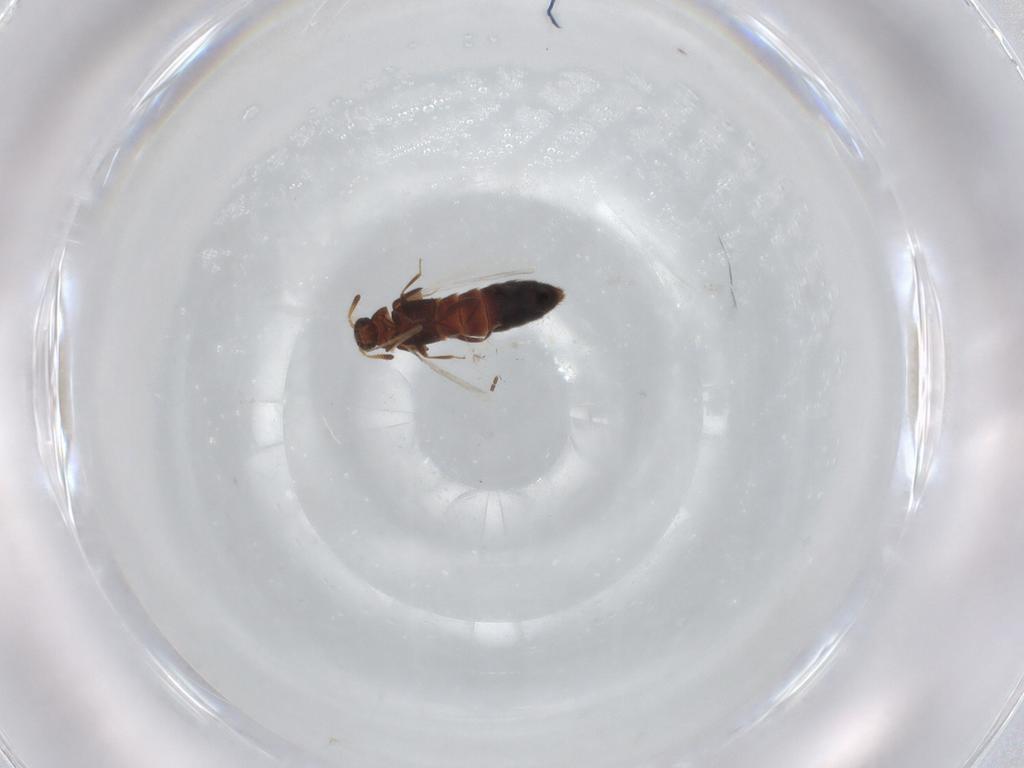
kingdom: Animalia
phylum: Arthropoda
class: Insecta
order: Coleoptera
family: Staphylinidae
